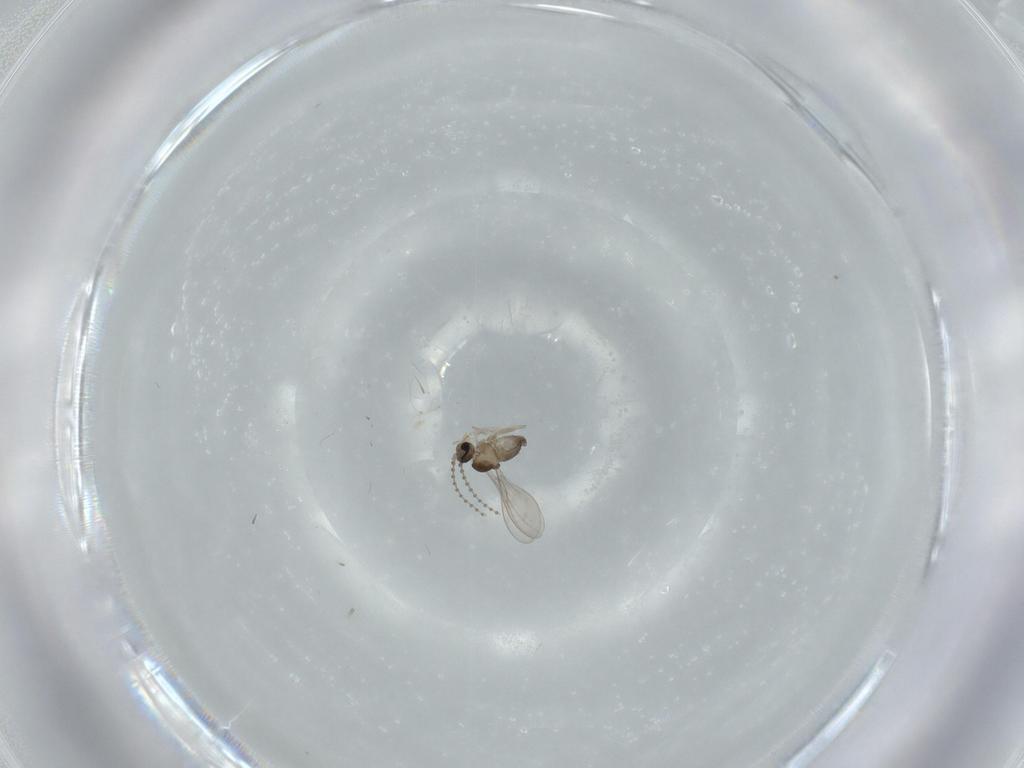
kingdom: Animalia
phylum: Arthropoda
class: Insecta
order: Diptera
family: Cecidomyiidae
